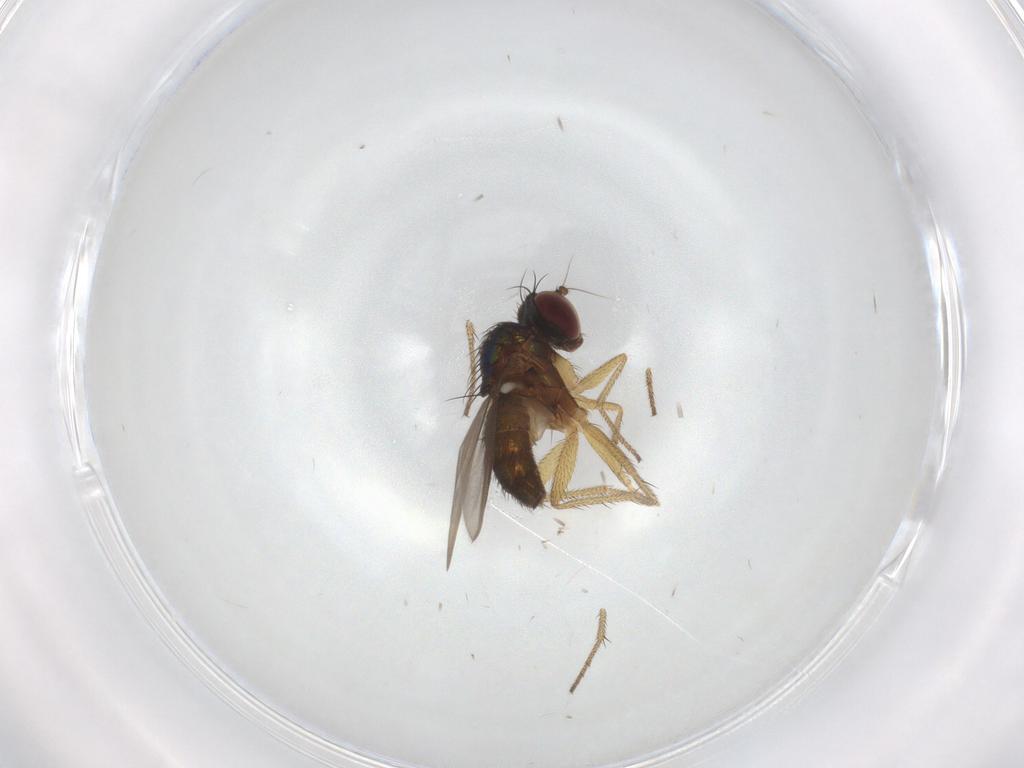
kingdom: Animalia
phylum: Arthropoda
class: Insecta
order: Diptera
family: Dolichopodidae
